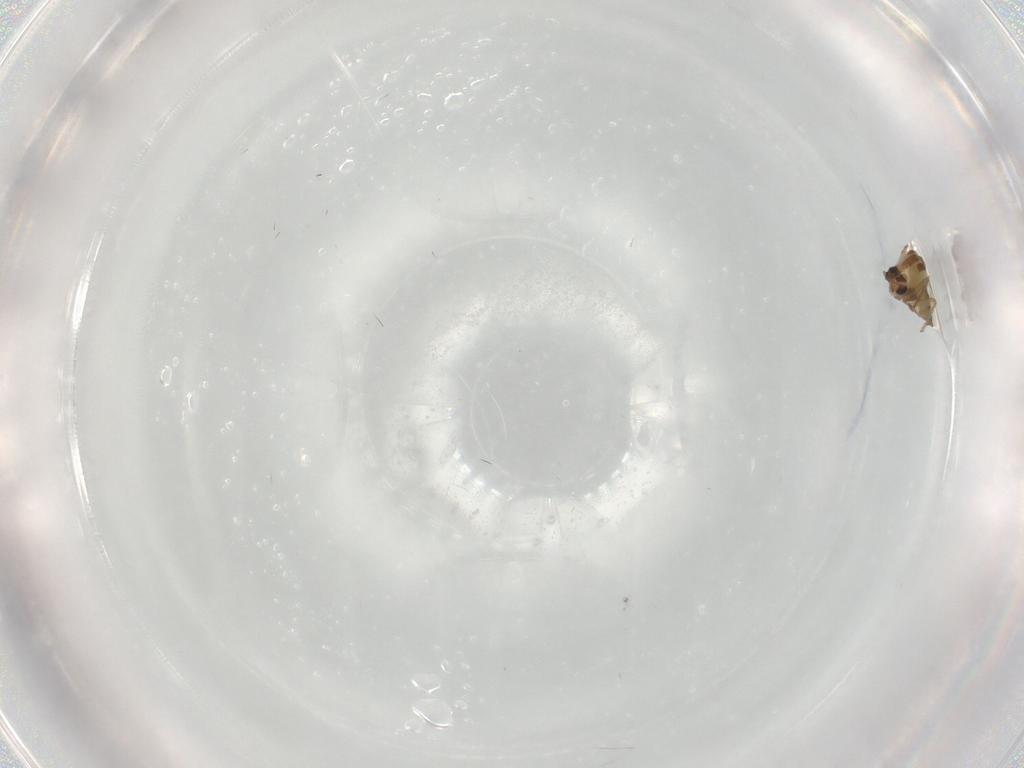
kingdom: Animalia
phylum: Arthropoda
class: Insecta
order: Diptera
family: Chironomidae
